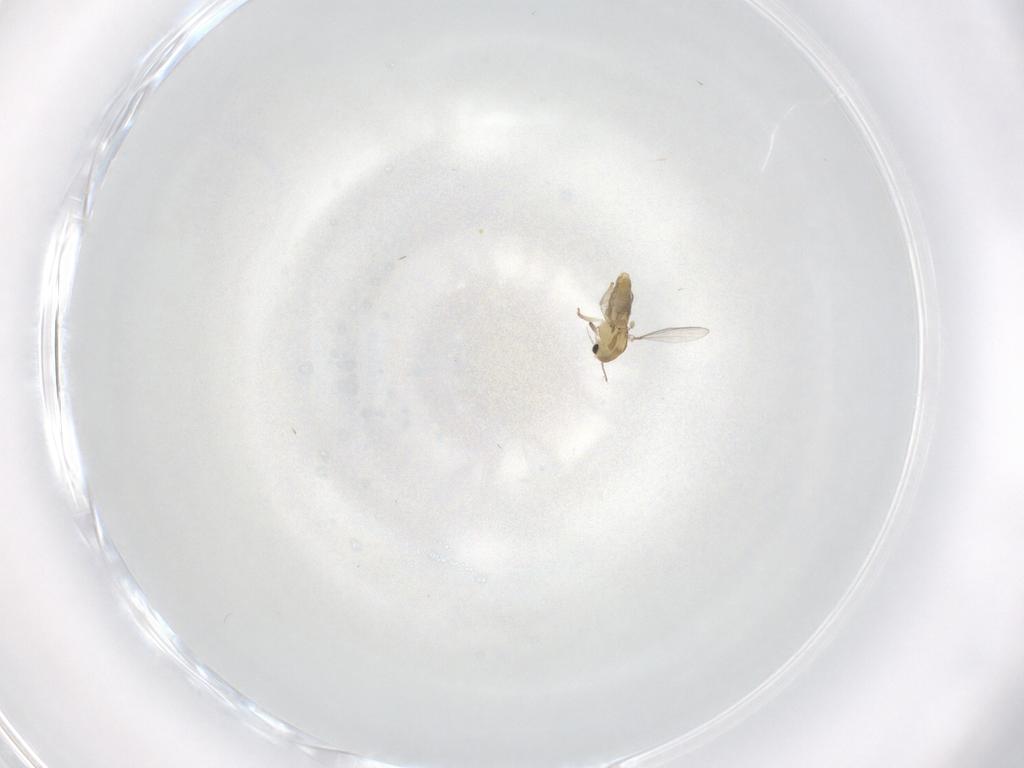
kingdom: Animalia
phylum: Arthropoda
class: Insecta
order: Diptera
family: Chironomidae
